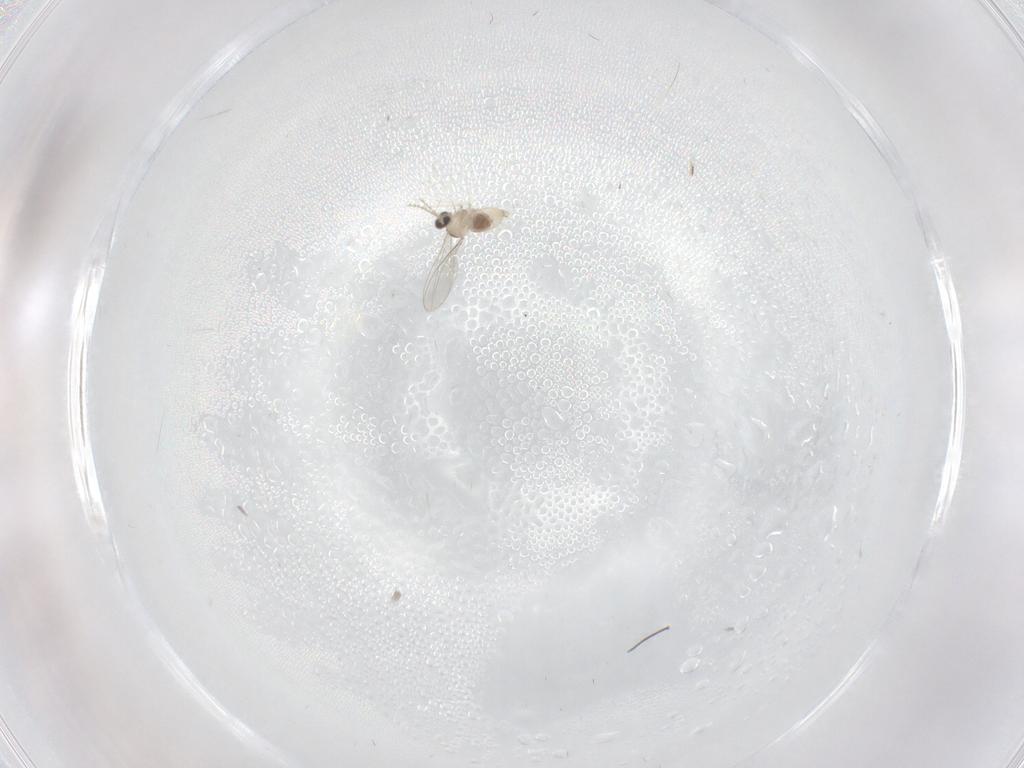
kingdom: Animalia
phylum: Arthropoda
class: Insecta
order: Diptera
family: Cecidomyiidae
